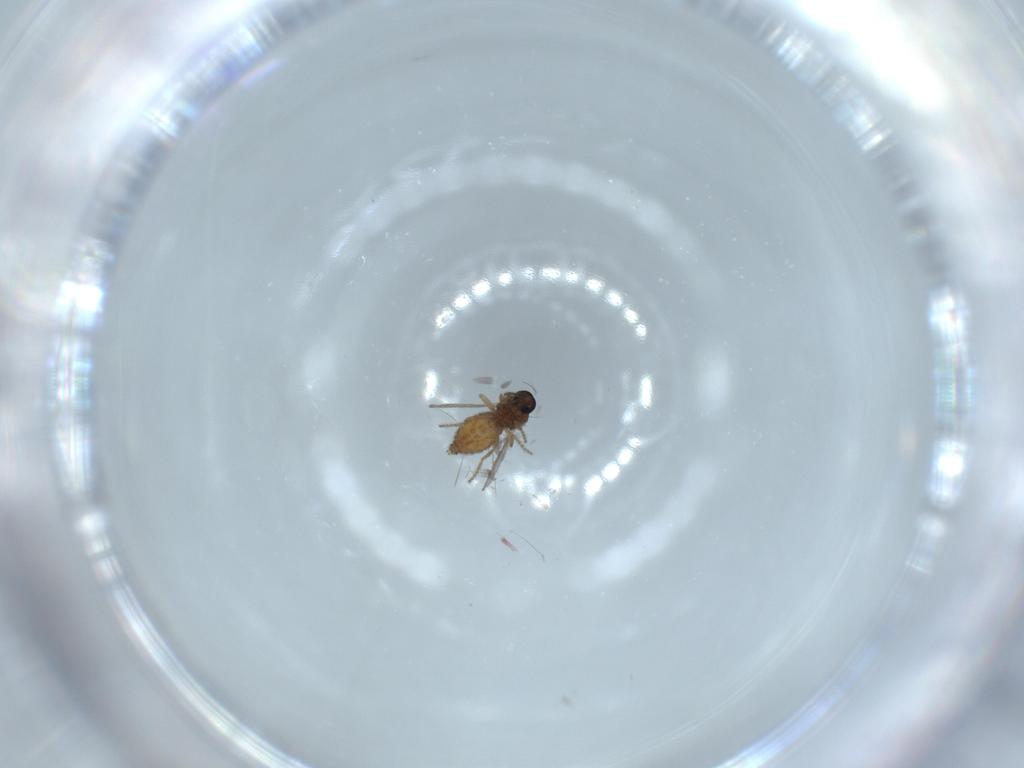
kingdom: Animalia
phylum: Arthropoda
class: Insecta
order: Diptera
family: Ceratopogonidae
